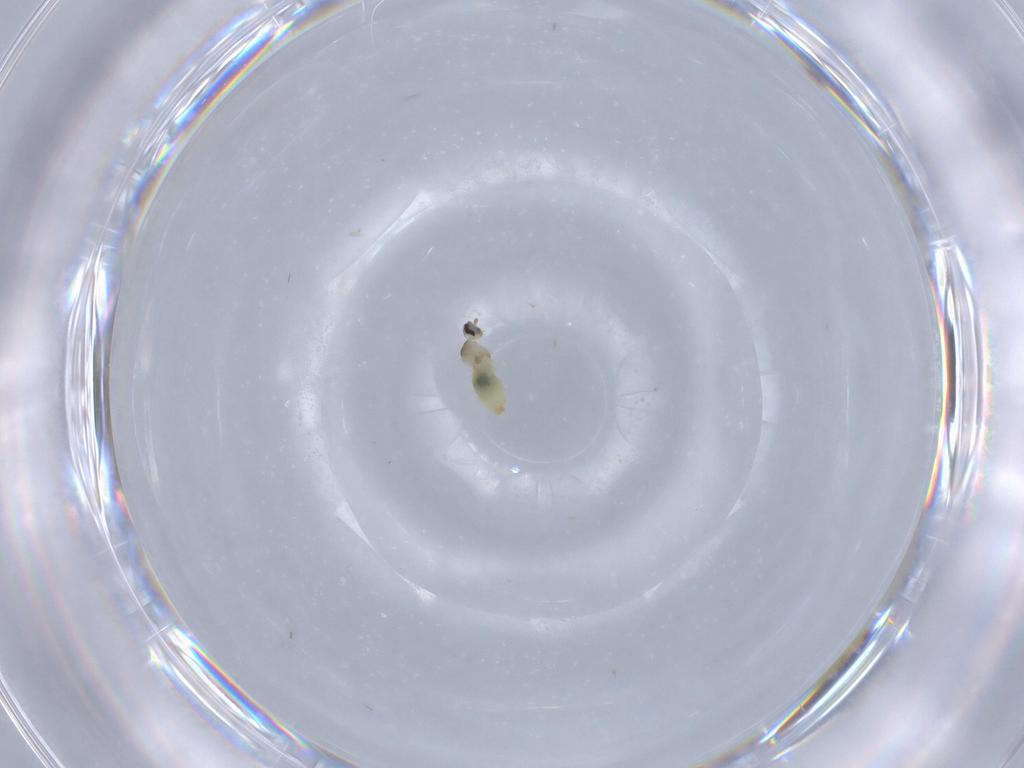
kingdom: Animalia
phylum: Arthropoda
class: Insecta
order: Diptera
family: Cecidomyiidae
